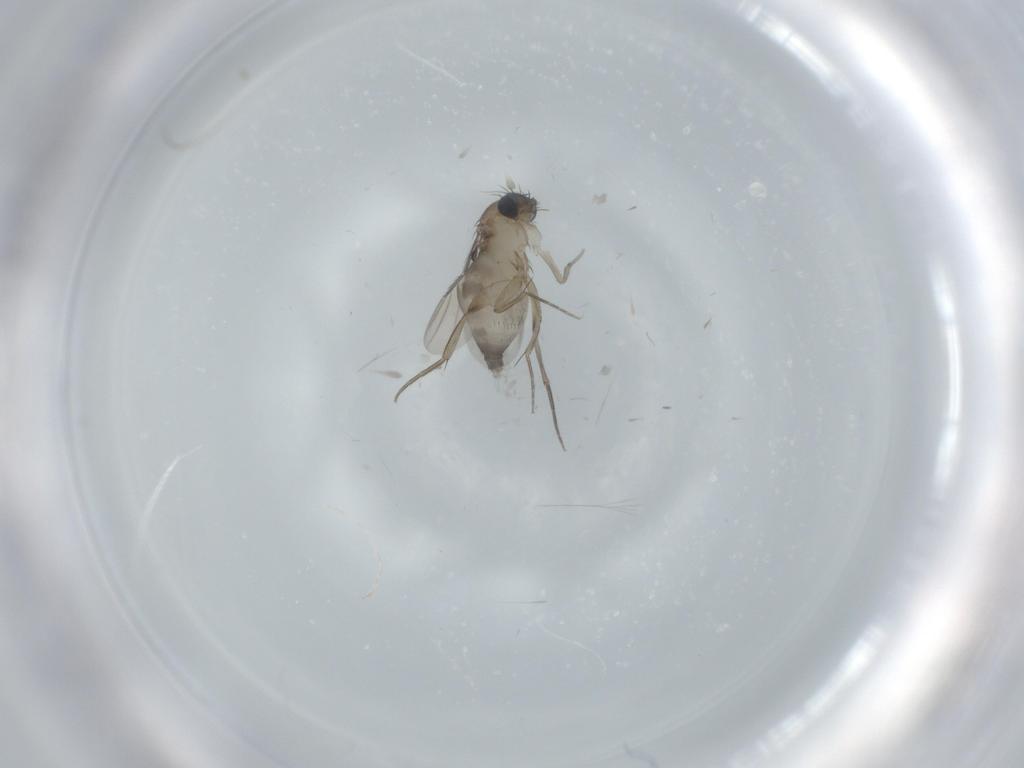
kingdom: Animalia
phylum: Arthropoda
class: Insecta
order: Diptera
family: Phoridae
